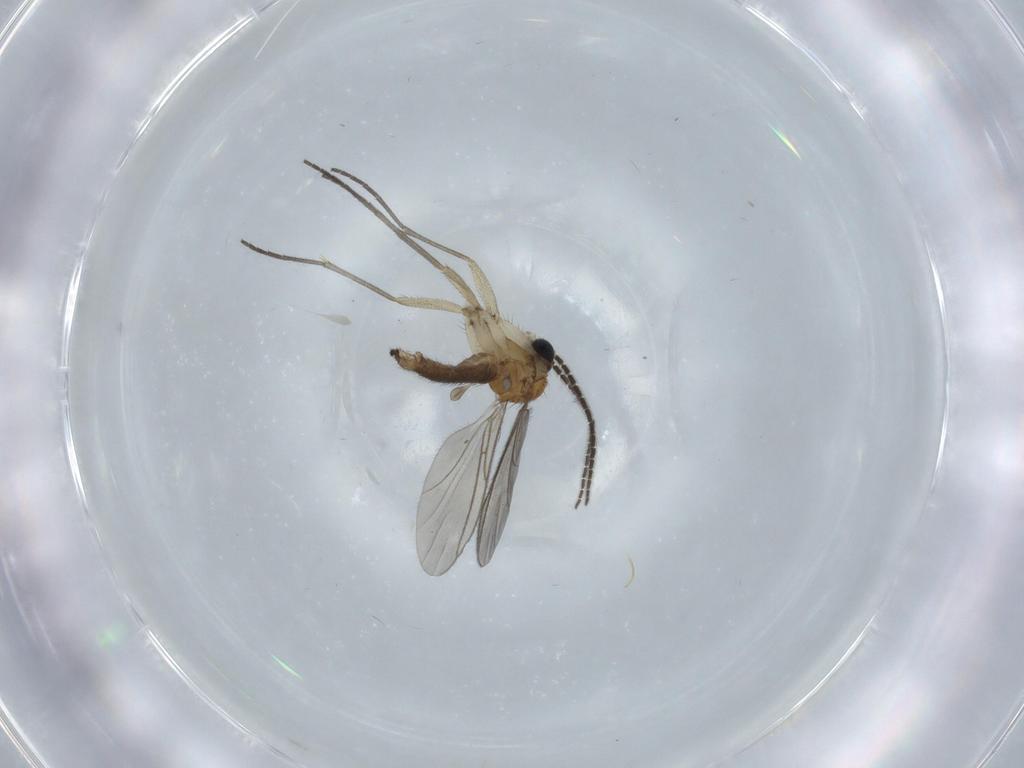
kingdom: Animalia
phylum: Arthropoda
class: Insecta
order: Diptera
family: Sciaridae
